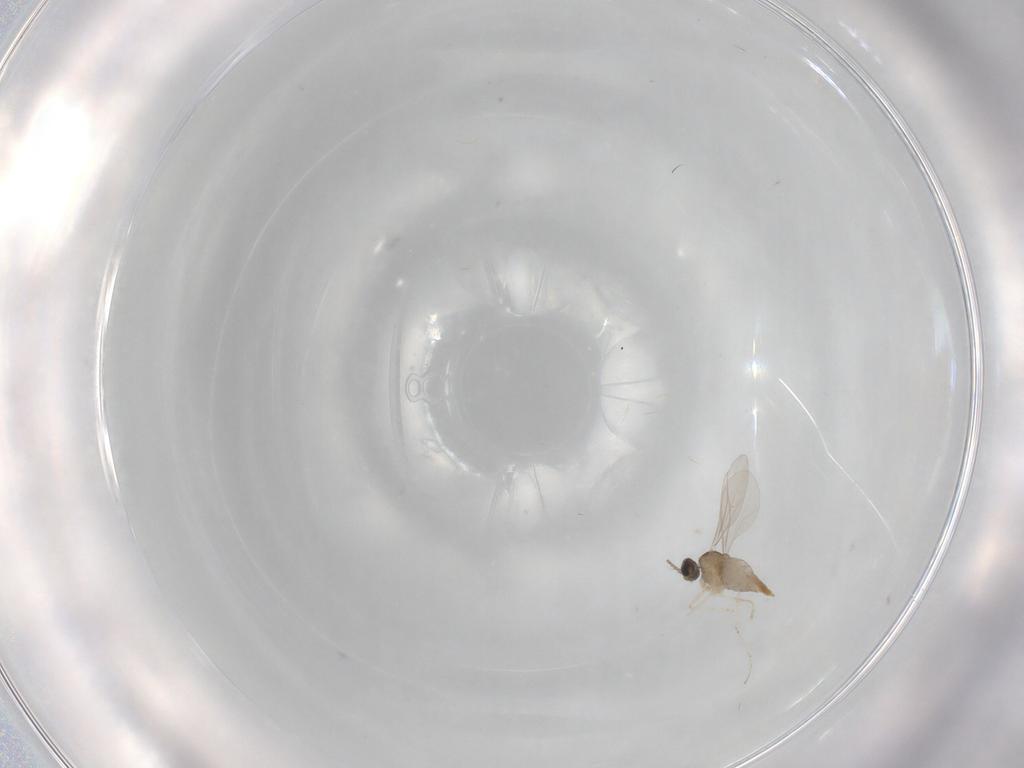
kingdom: Animalia
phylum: Arthropoda
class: Insecta
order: Diptera
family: Cecidomyiidae
